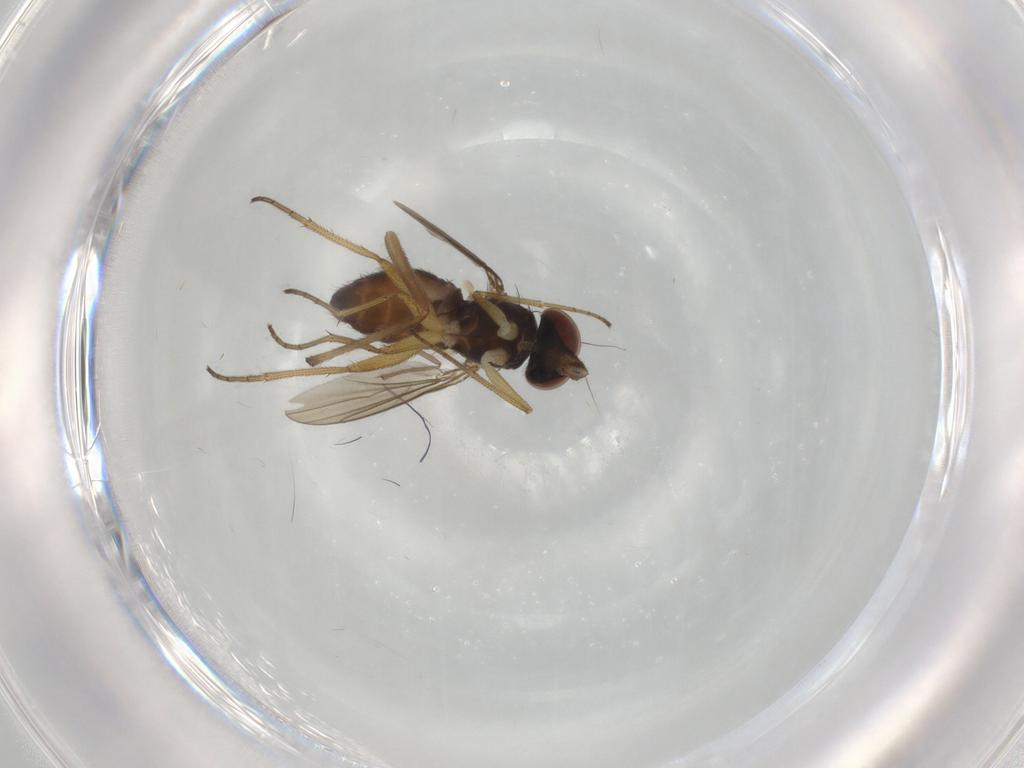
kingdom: Animalia
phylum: Arthropoda
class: Insecta
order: Diptera
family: Dolichopodidae
